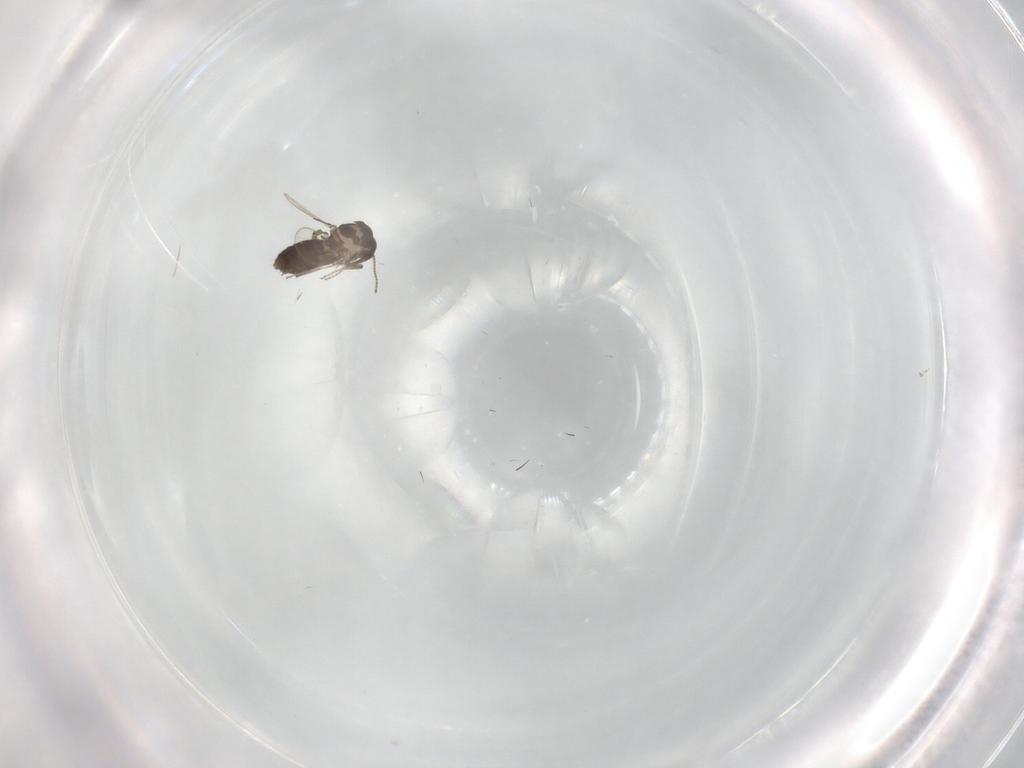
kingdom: Animalia
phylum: Arthropoda
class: Insecta
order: Diptera
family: Ceratopogonidae
